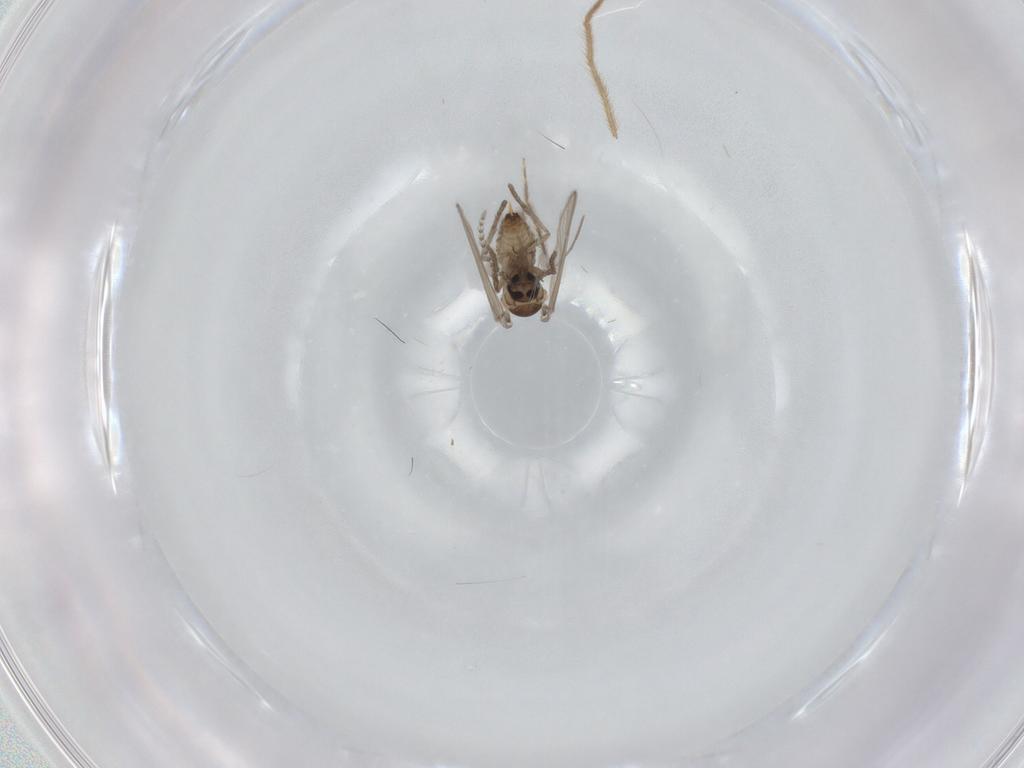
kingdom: Animalia
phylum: Arthropoda
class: Insecta
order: Diptera
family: Psychodidae
